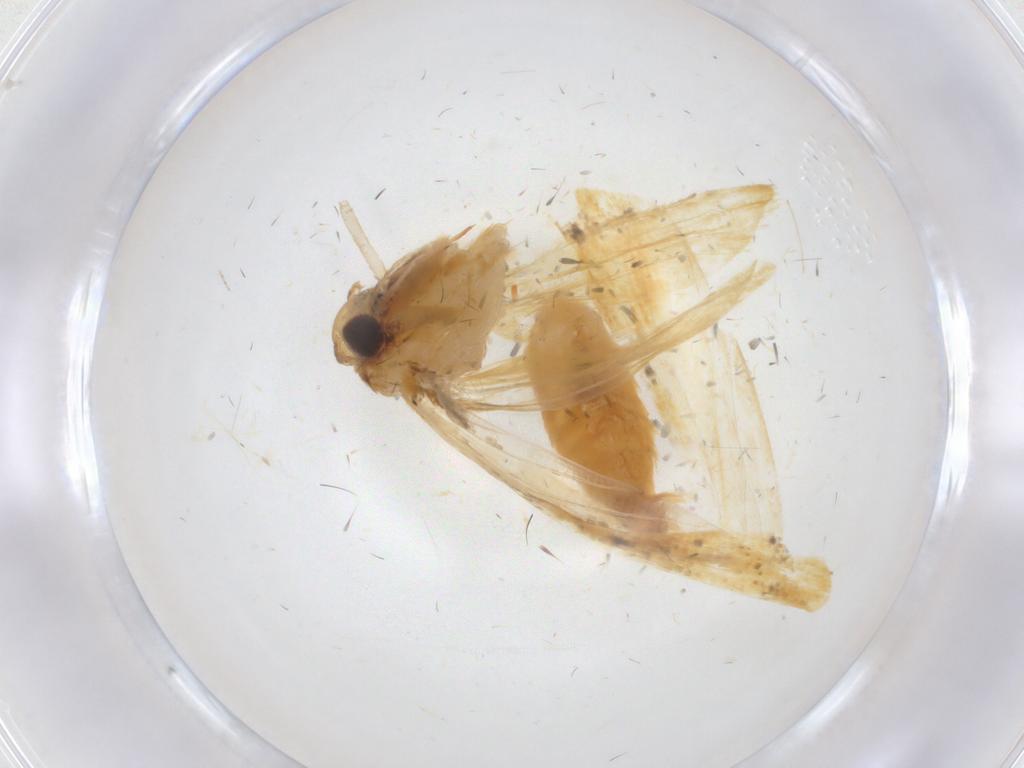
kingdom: Animalia
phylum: Arthropoda
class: Insecta
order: Lepidoptera
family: Oecophoridae
